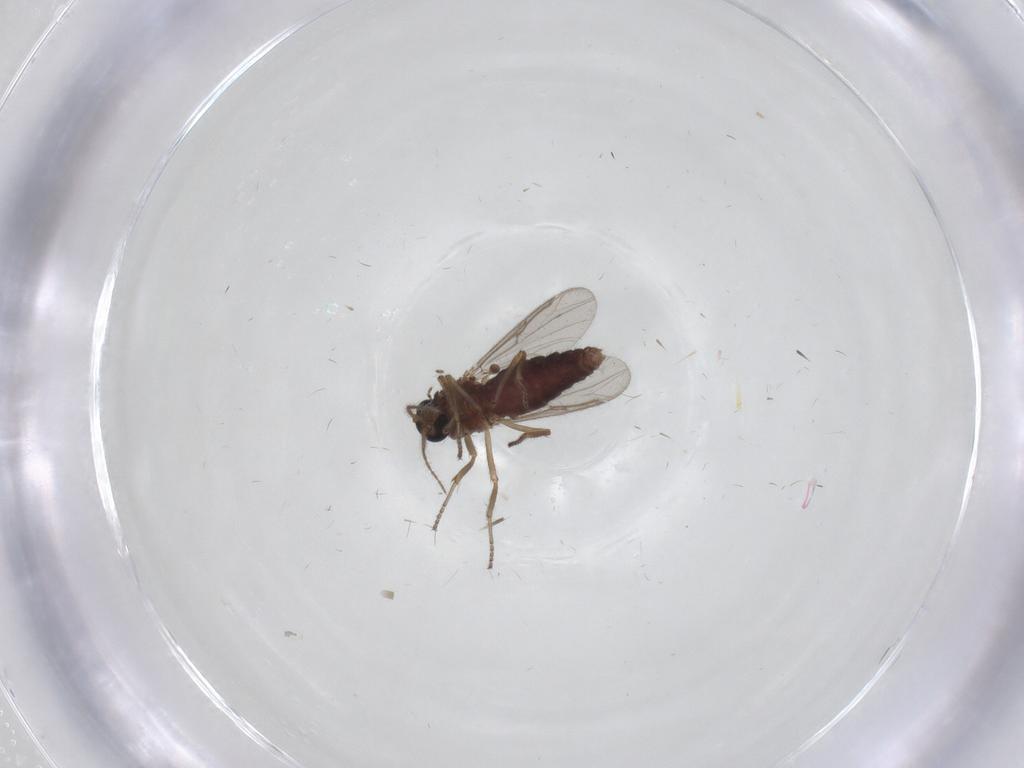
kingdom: Animalia
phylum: Arthropoda
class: Insecta
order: Diptera
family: Ceratopogonidae
